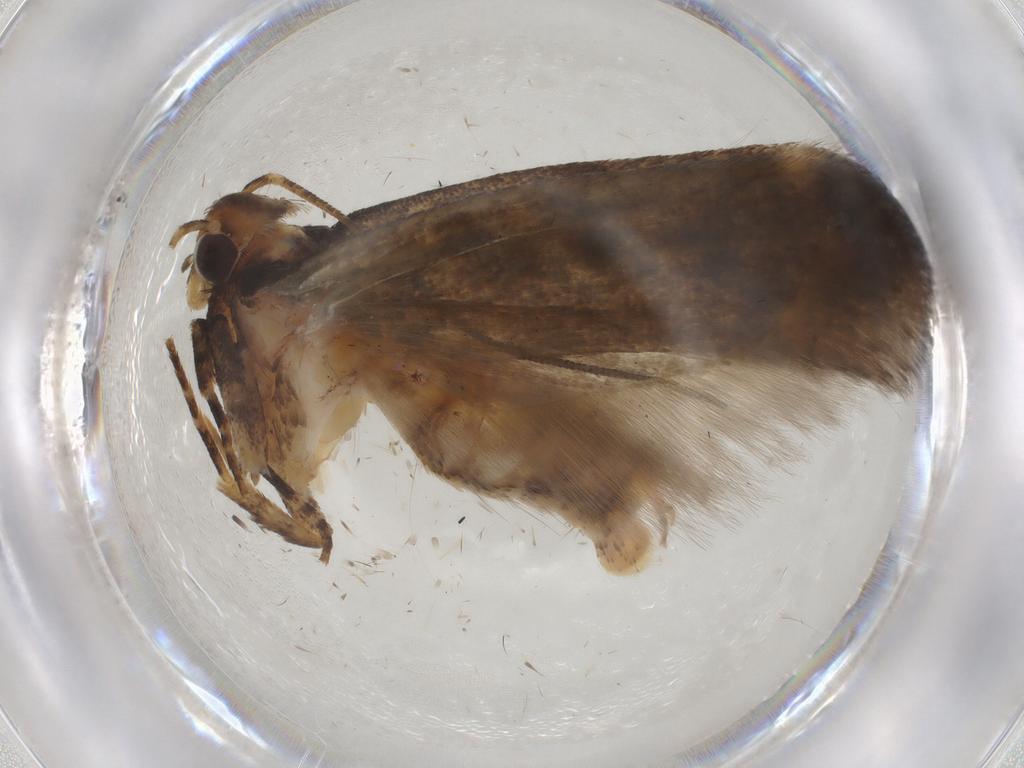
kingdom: Animalia
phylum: Arthropoda
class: Insecta
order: Lepidoptera
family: Gelechiidae
